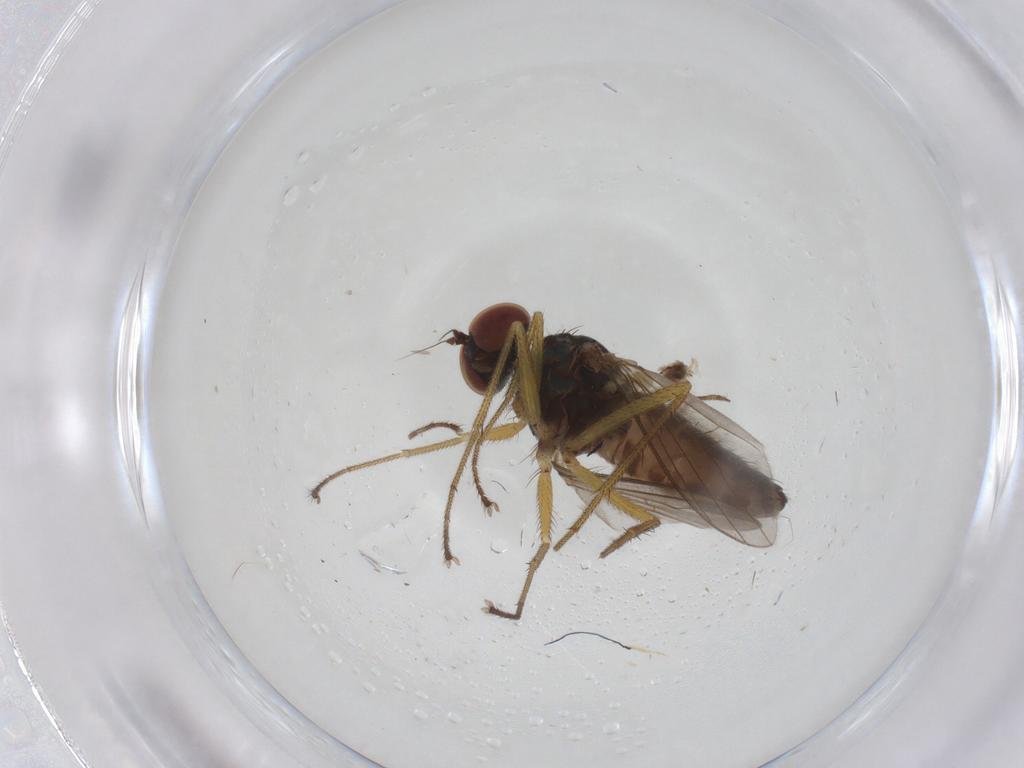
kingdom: Animalia
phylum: Arthropoda
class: Insecta
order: Diptera
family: Dolichopodidae
